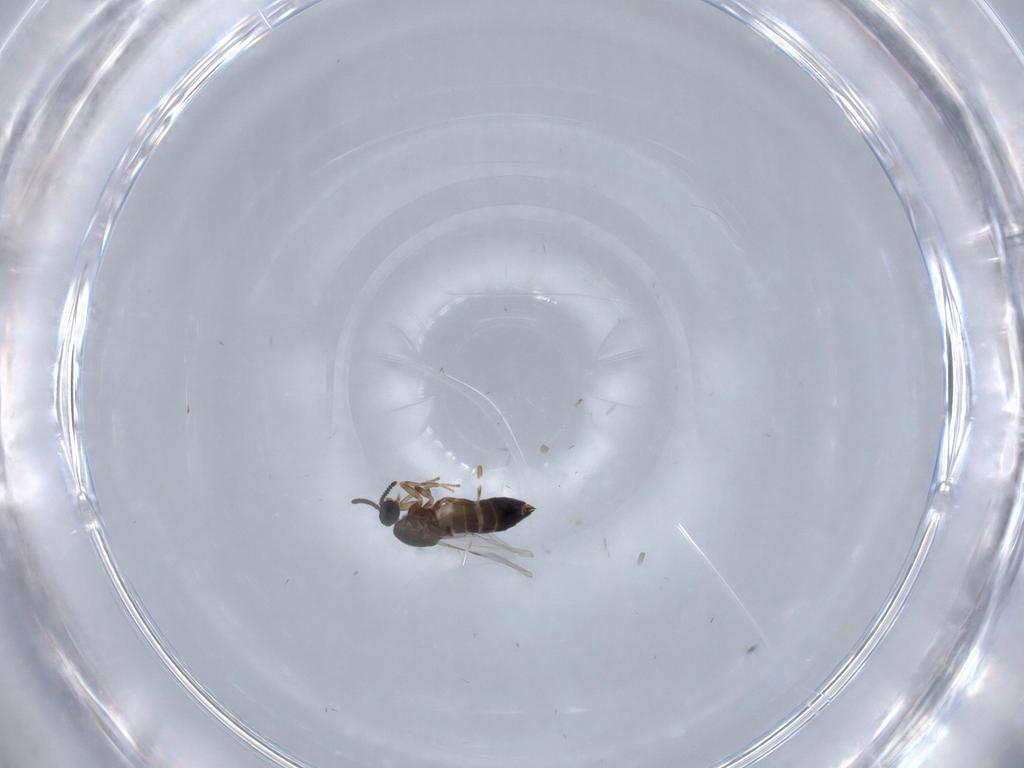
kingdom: Animalia
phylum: Arthropoda
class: Insecta
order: Diptera
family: Scatopsidae
